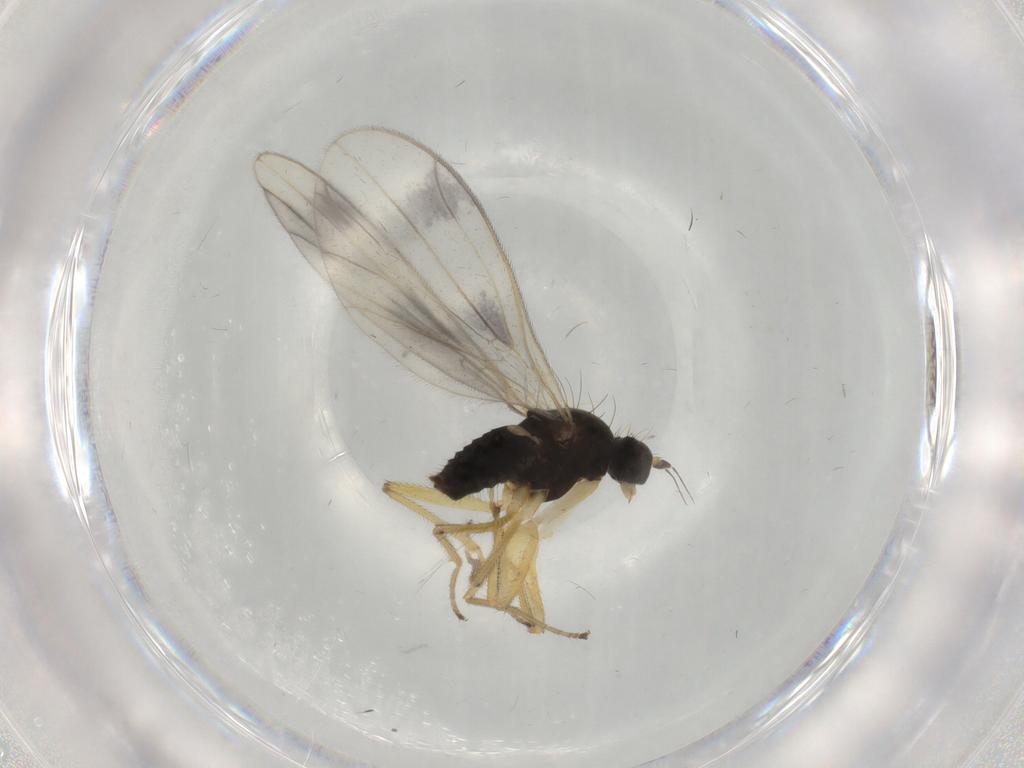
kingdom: Animalia
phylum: Arthropoda
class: Insecta
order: Diptera
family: Empididae
